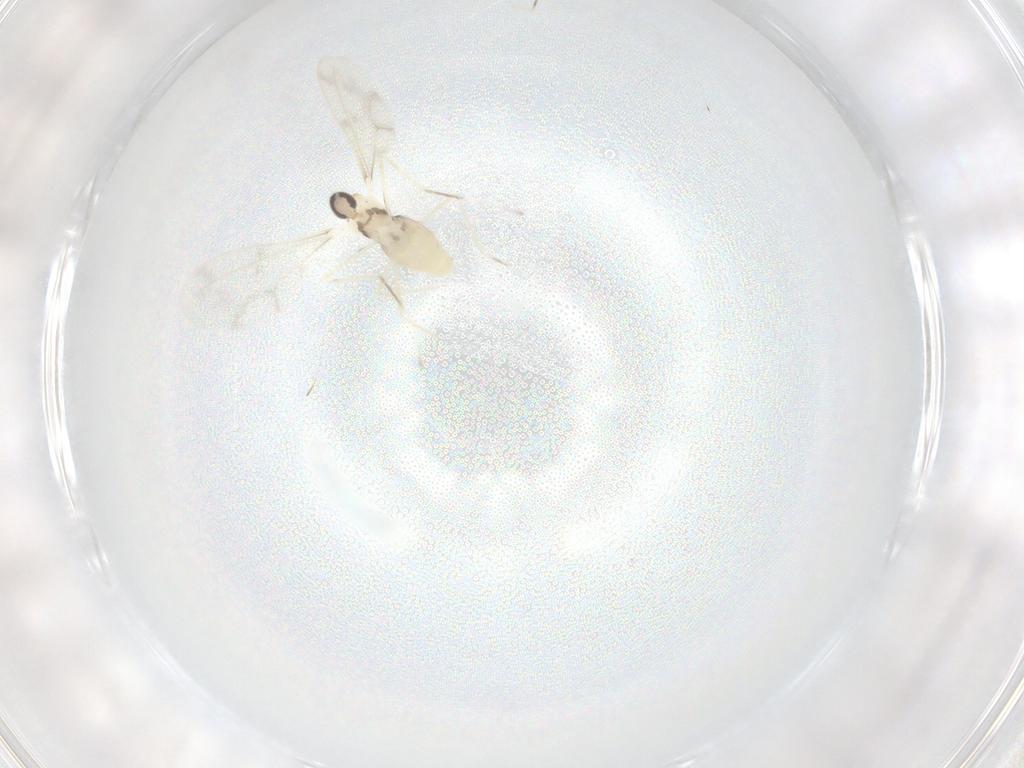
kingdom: Animalia
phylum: Arthropoda
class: Insecta
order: Diptera
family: Cecidomyiidae
